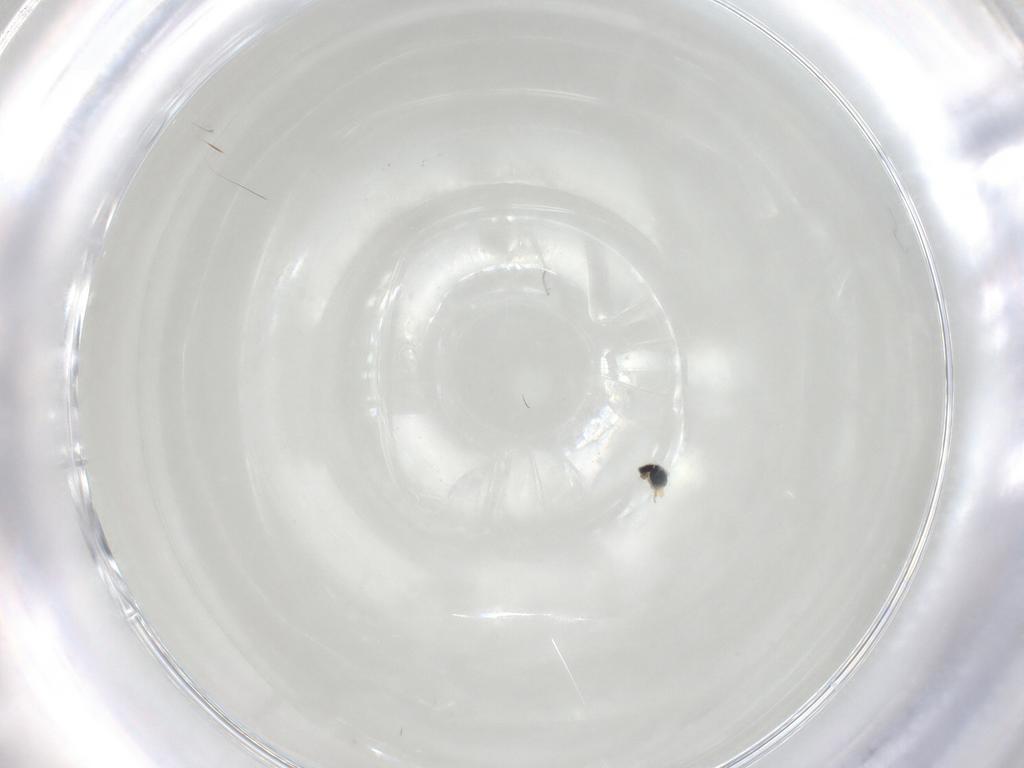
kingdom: Animalia
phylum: Arthropoda
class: Insecta
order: Diptera
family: Cecidomyiidae
